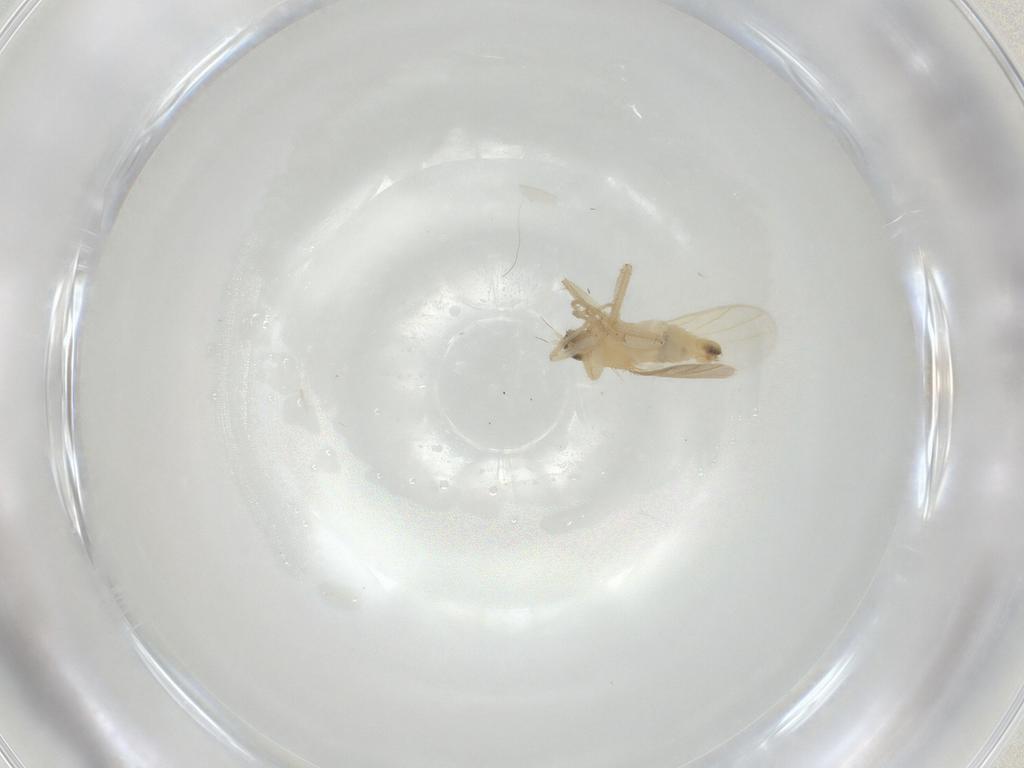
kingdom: Animalia
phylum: Arthropoda
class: Insecta
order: Diptera
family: Hybotidae
